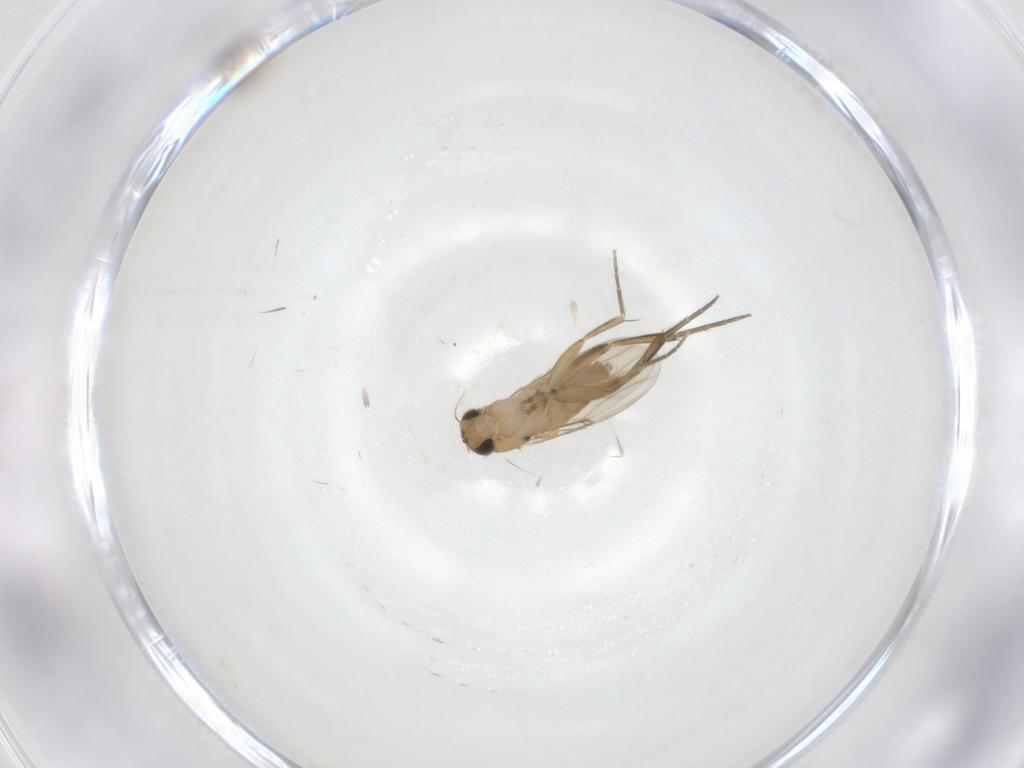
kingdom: Animalia
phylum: Arthropoda
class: Insecta
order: Diptera
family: Phoridae
